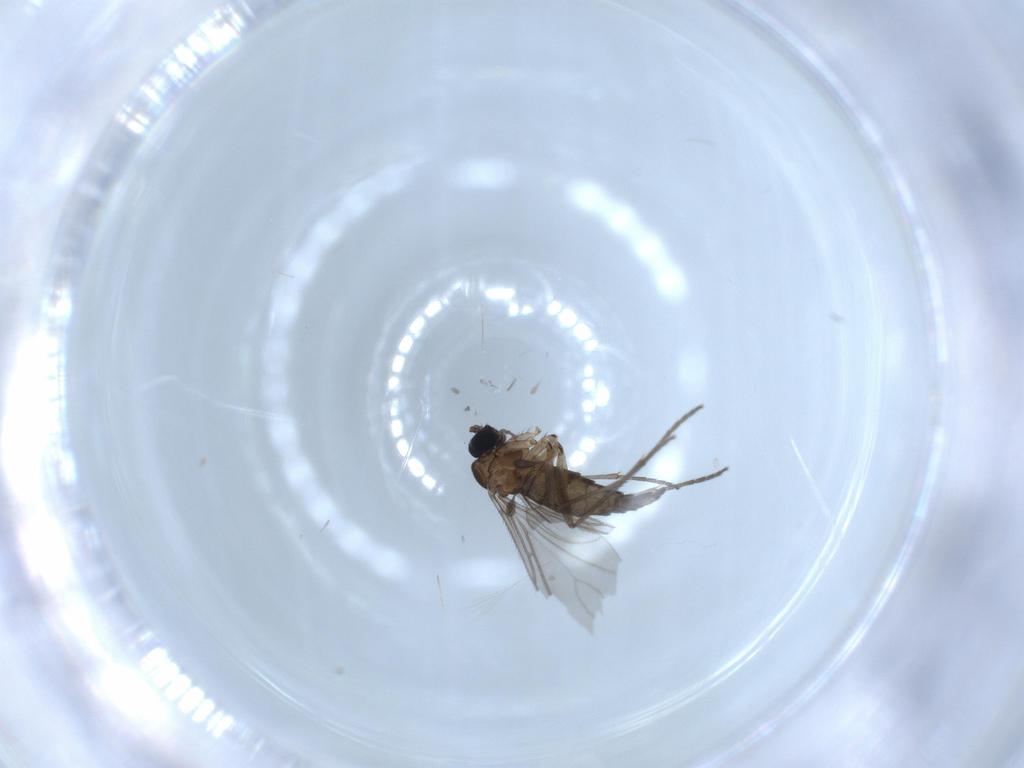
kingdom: Animalia
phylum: Arthropoda
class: Insecta
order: Diptera
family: Sciaridae
